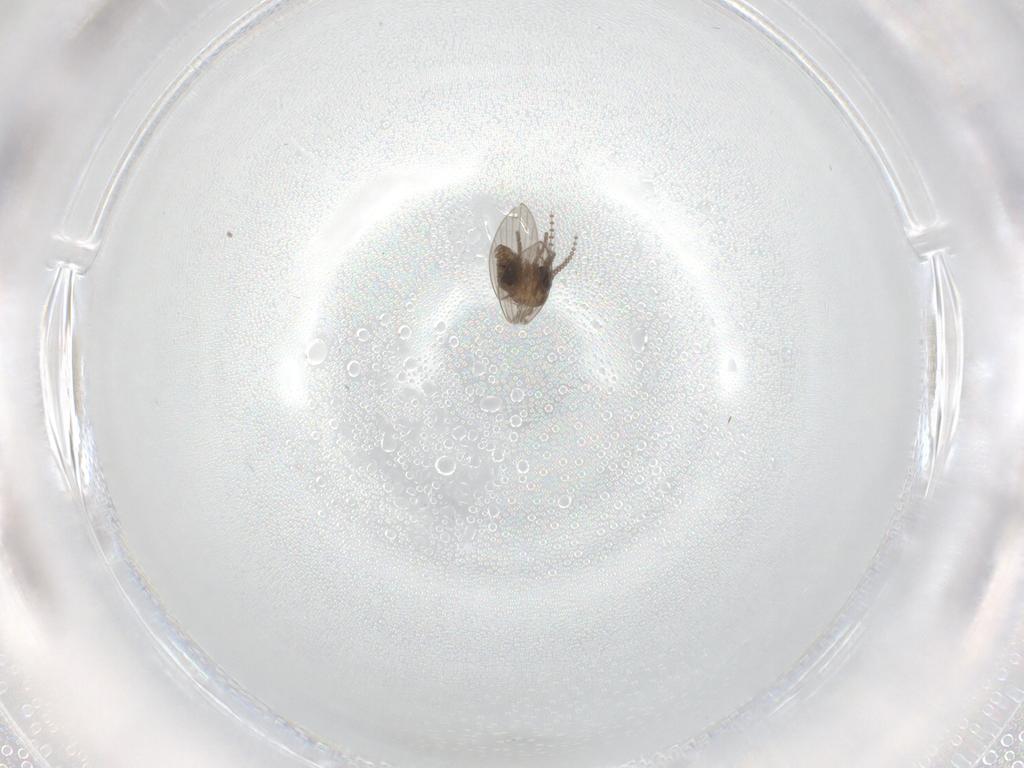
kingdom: Animalia
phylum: Arthropoda
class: Insecta
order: Diptera
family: Sciaridae
